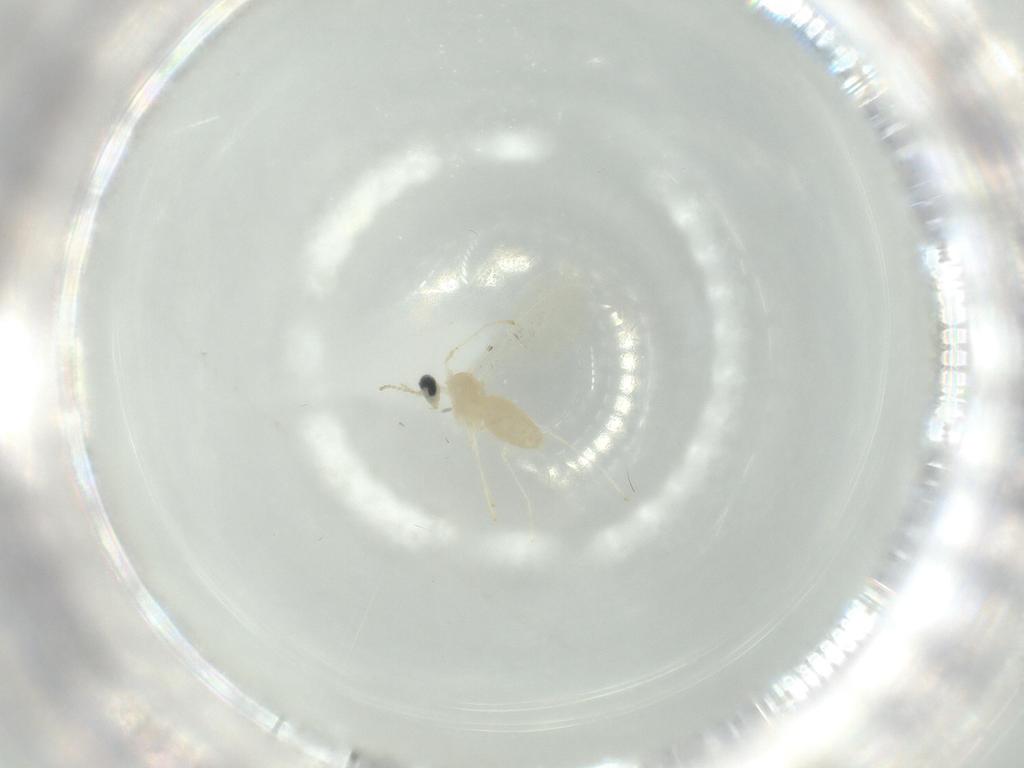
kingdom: Animalia
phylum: Arthropoda
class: Insecta
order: Diptera
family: Cecidomyiidae
